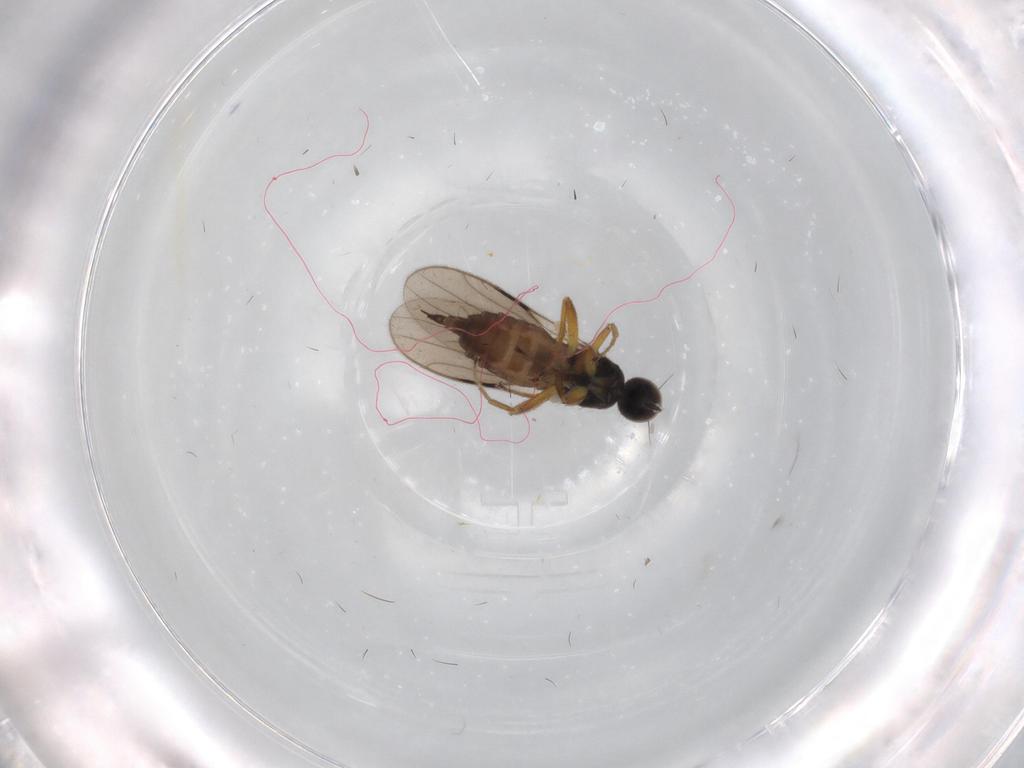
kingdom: Animalia
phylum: Arthropoda
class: Insecta
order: Diptera
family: Hybotidae
